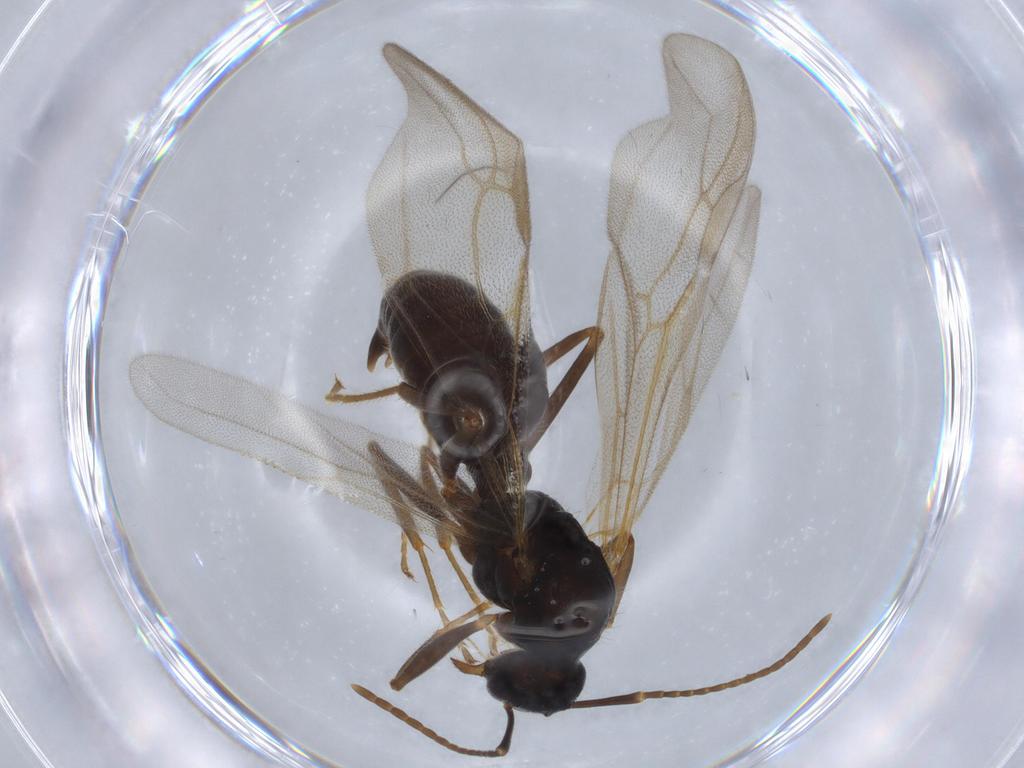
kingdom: Animalia
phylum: Arthropoda
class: Insecta
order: Hymenoptera
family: Formicidae
